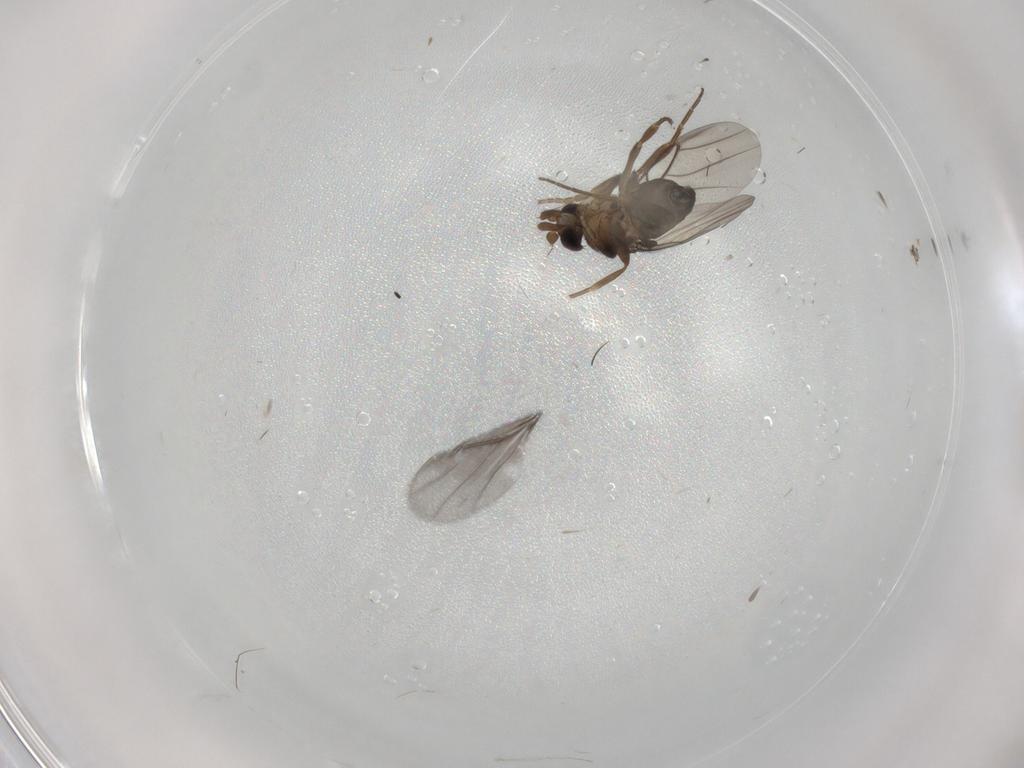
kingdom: Animalia
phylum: Arthropoda
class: Insecta
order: Diptera
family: Phoridae
